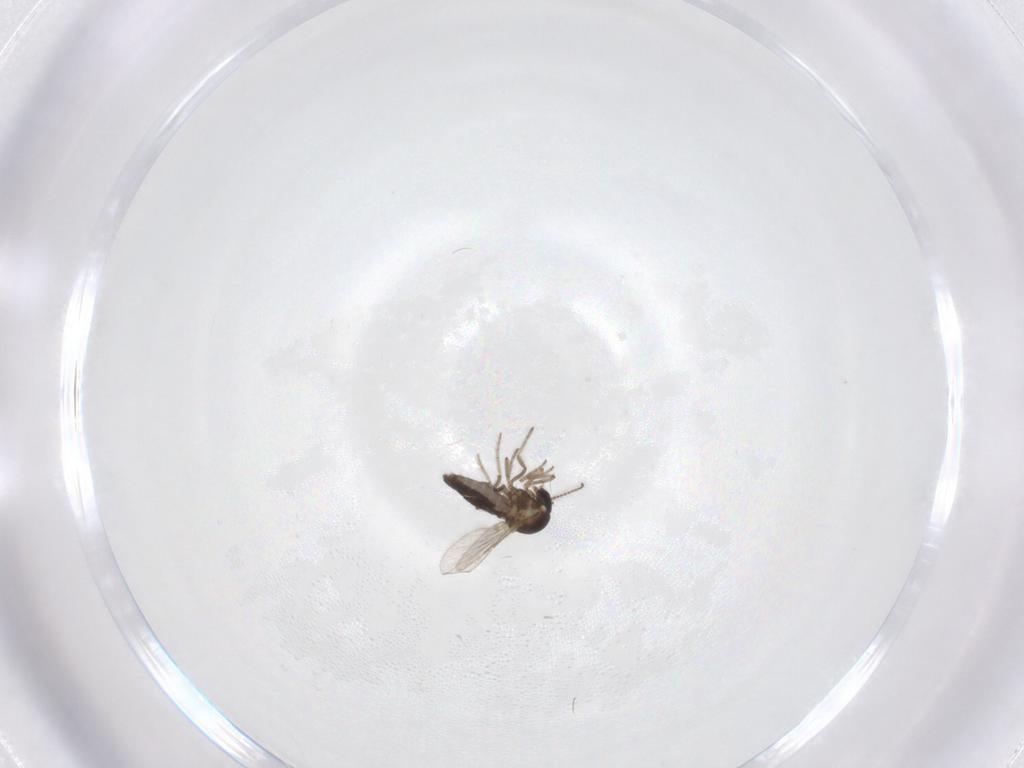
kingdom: Animalia
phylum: Arthropoda
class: Insecta
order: Diptera
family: Ceratopogonidae
